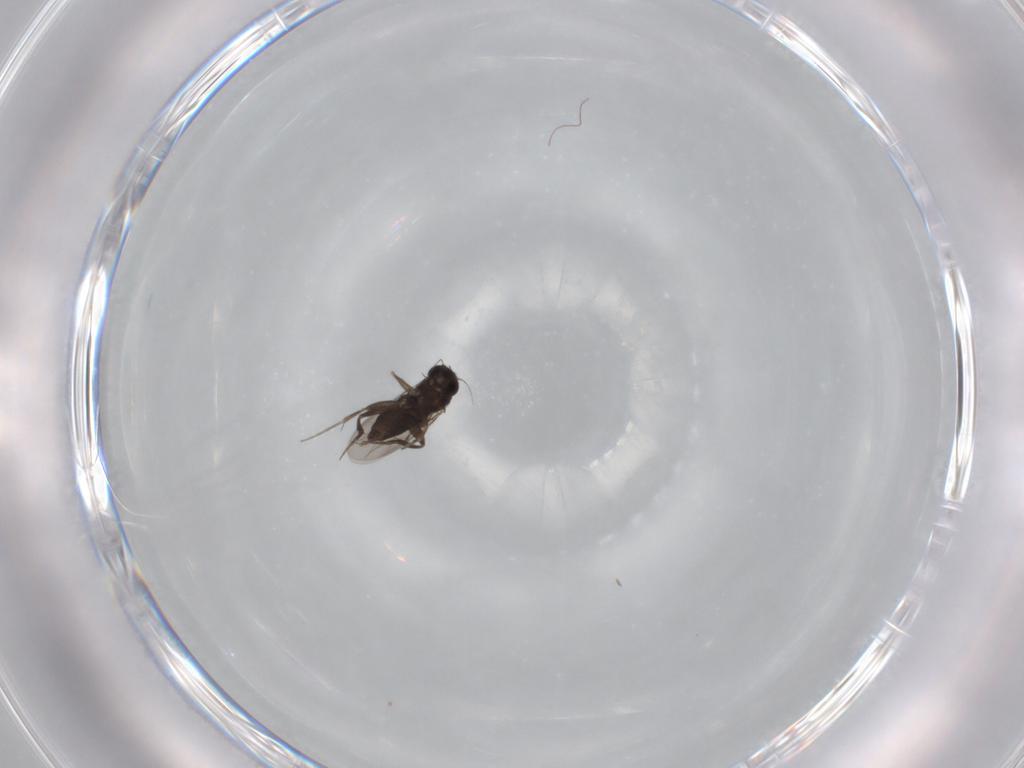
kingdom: Animalia
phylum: Arthropoda
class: Insecta
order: Diptera
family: Phoridae
